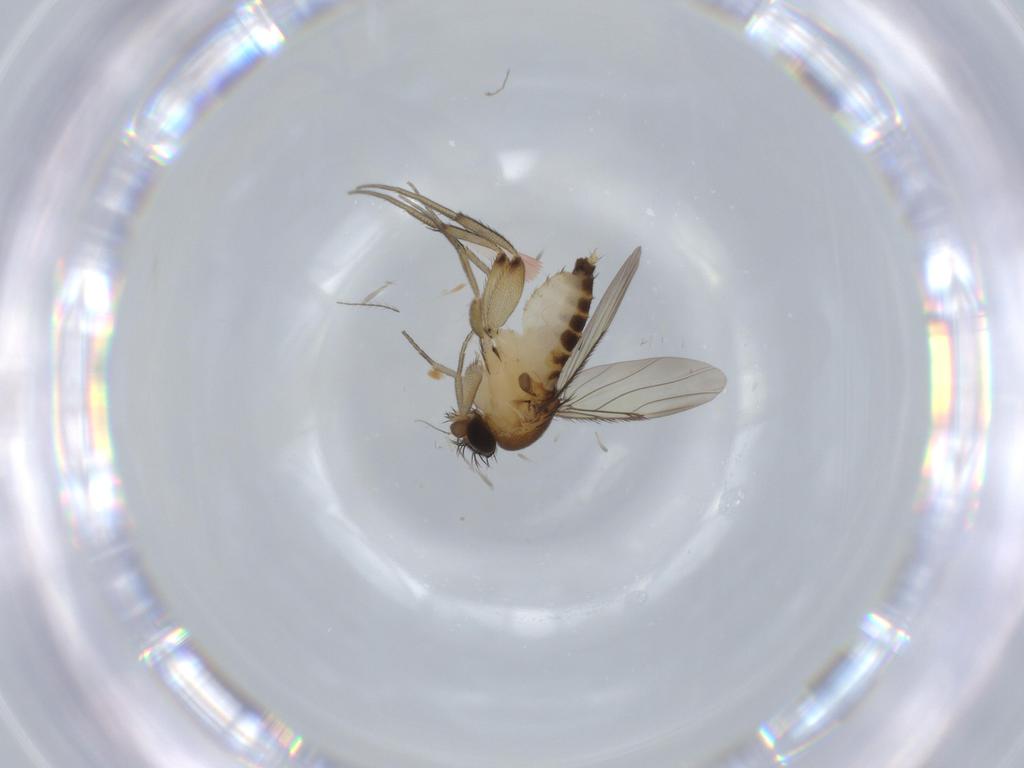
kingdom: Animalia
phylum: Arthropoda
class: Insecta
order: Diptera
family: Phoridae
